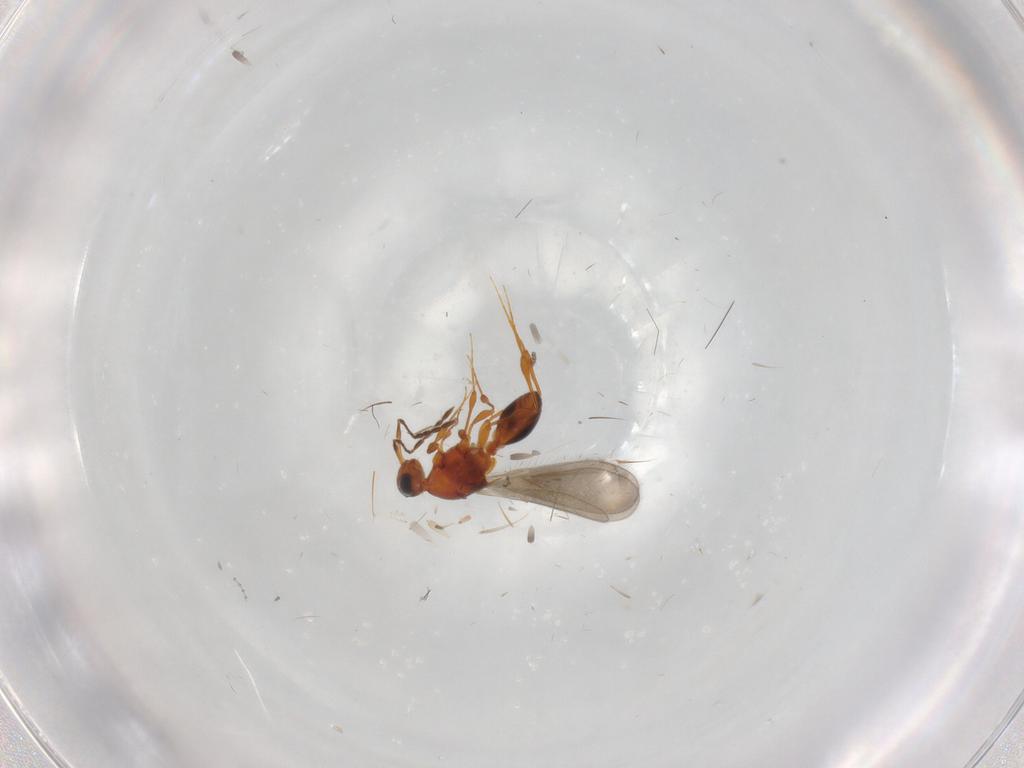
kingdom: Animalia
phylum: Arthropoda
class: Insecta
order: Hymenoptera
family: Platygastridae
